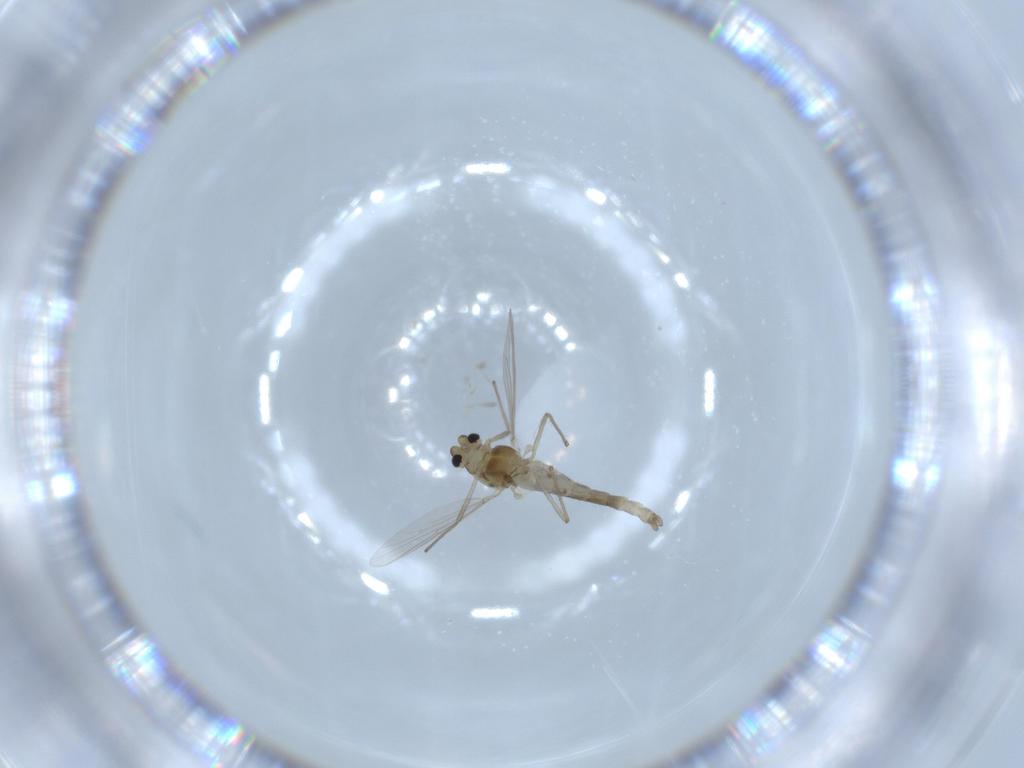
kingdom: Animalia
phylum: Arthropoda
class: Insecta
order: Diptera
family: Chironomidae
